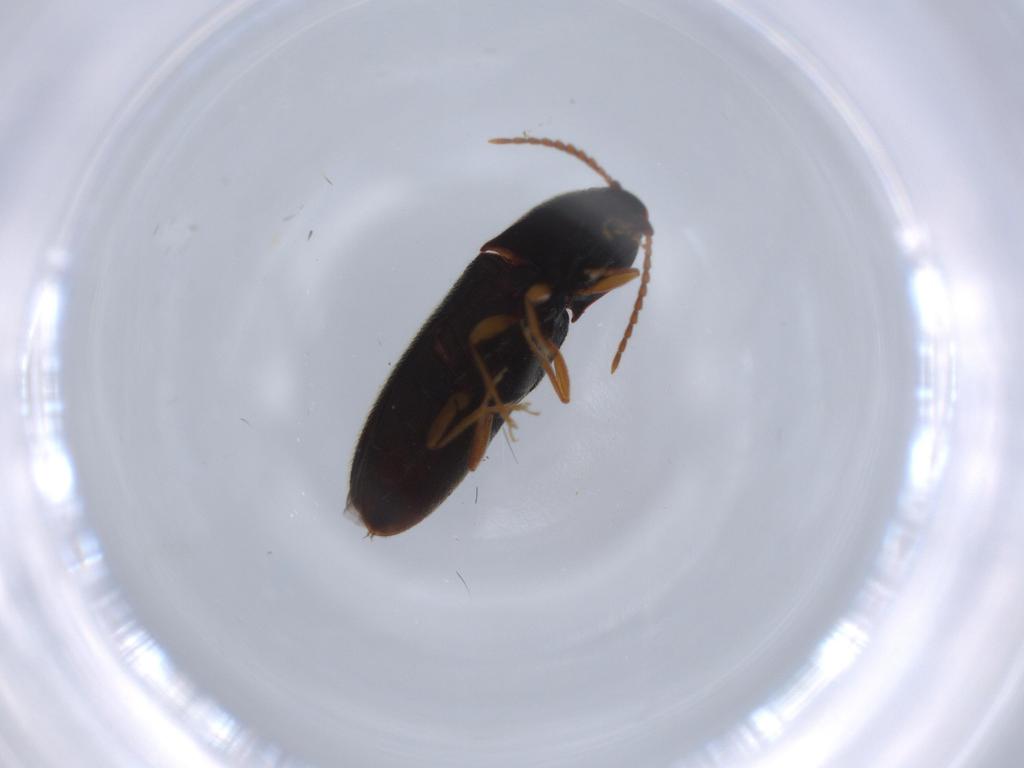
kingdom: Animalia
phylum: Arthropoda
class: Insecta
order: Coleoptera
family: Elateridae
